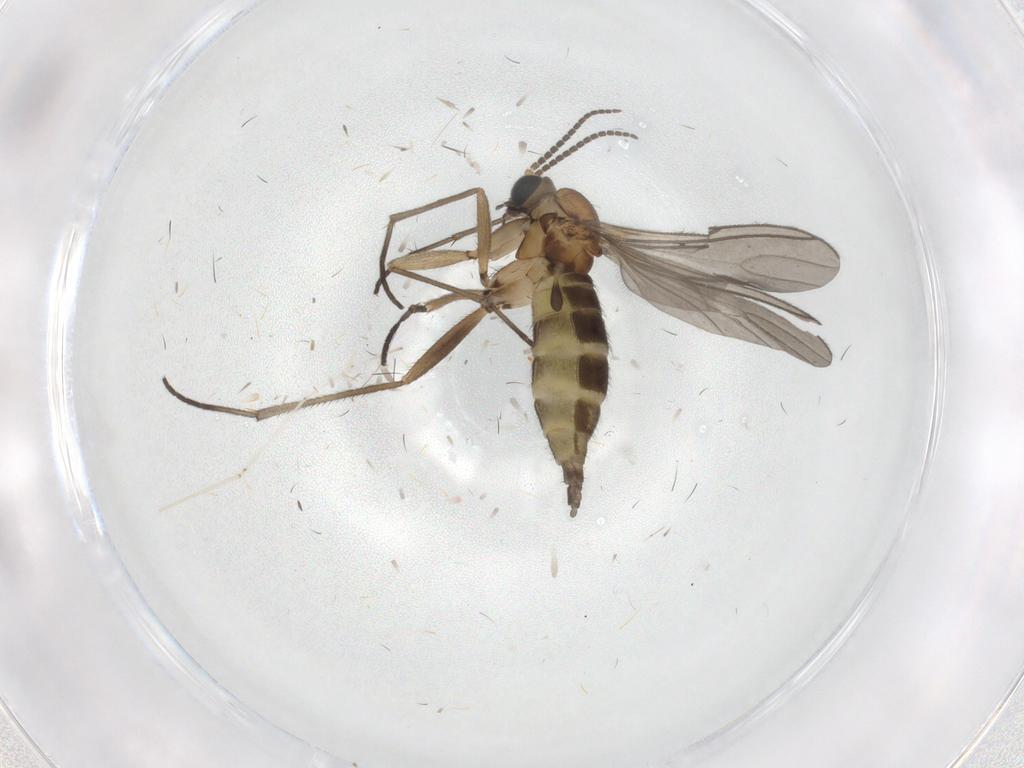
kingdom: Animalia
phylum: Arthropoda
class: Insecta
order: Diptera
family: Sciaridae
